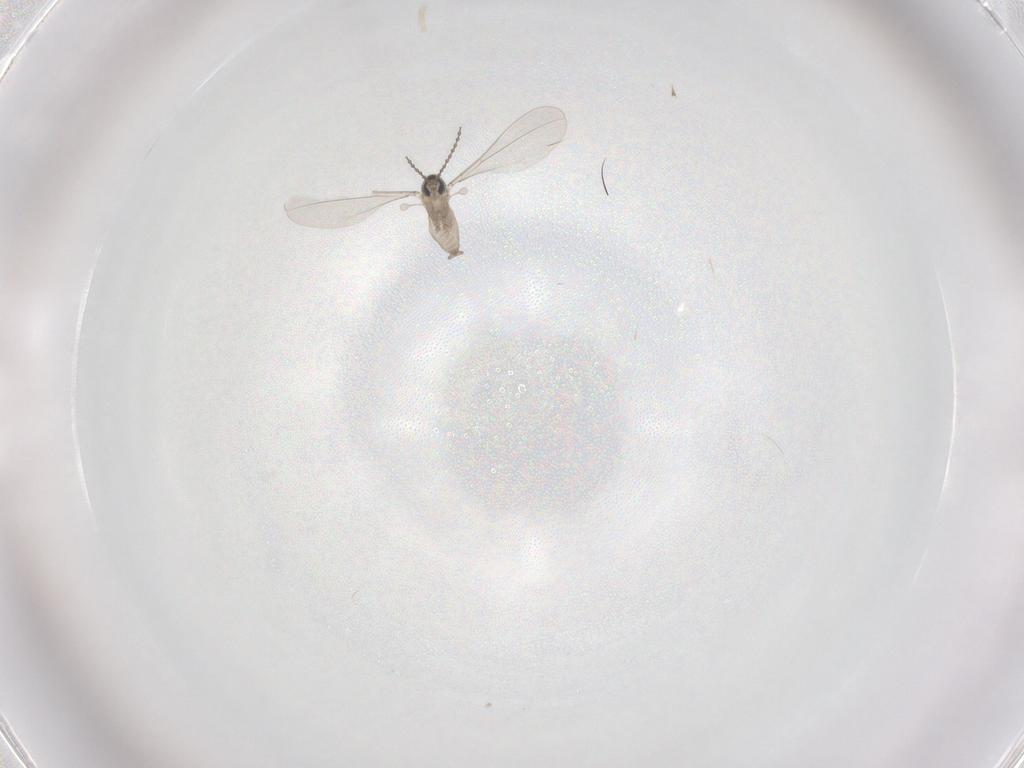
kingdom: Animalia
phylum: Arthropoda
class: Insecta
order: Diptera
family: Cecidomyiidae
